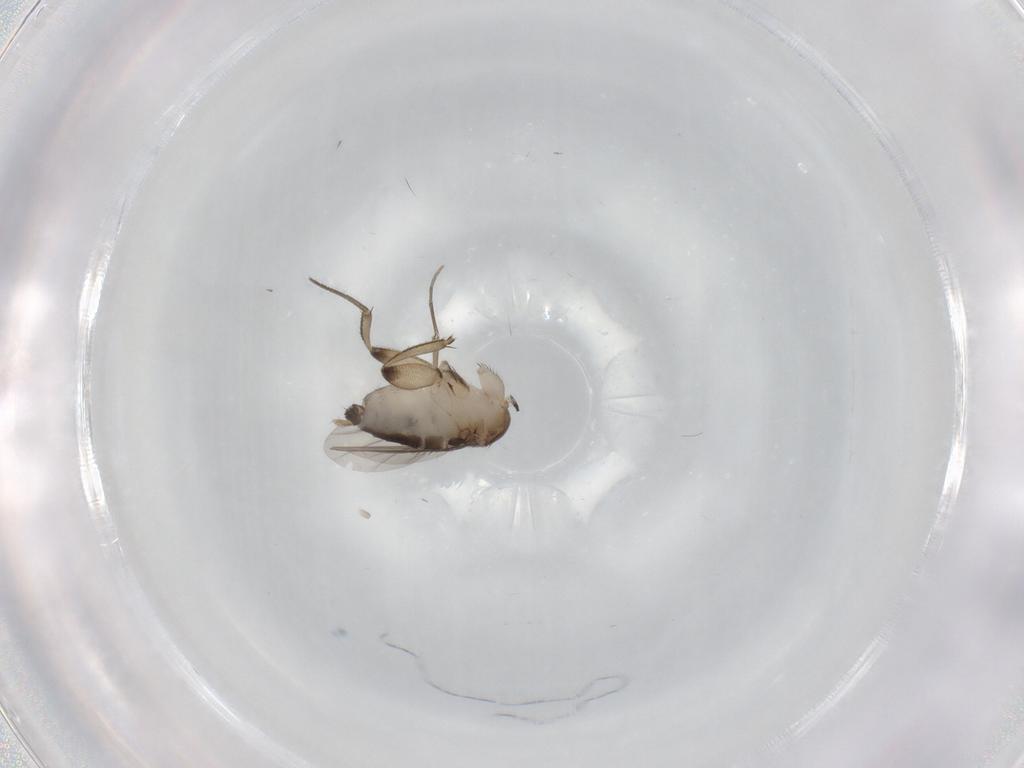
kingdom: Animalia
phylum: Arthropoda
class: Insecta
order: Diptera
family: Phoridae
